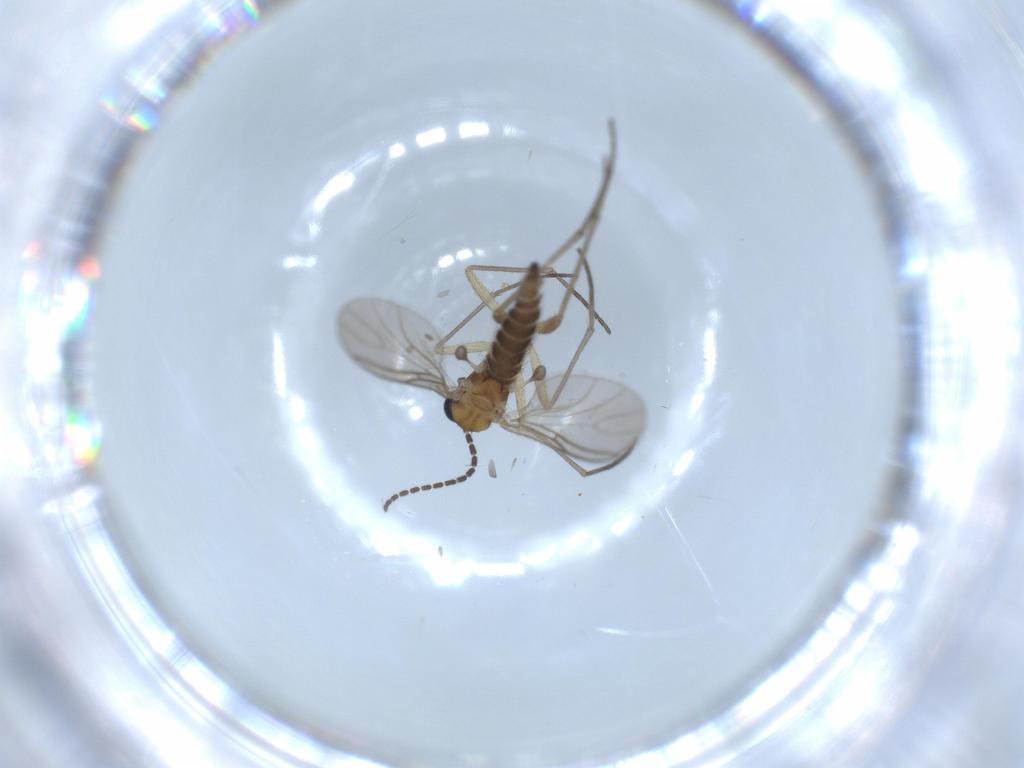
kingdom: Animalia
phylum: Arthropoda
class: Insecta
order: Diptera
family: Sciaridae
